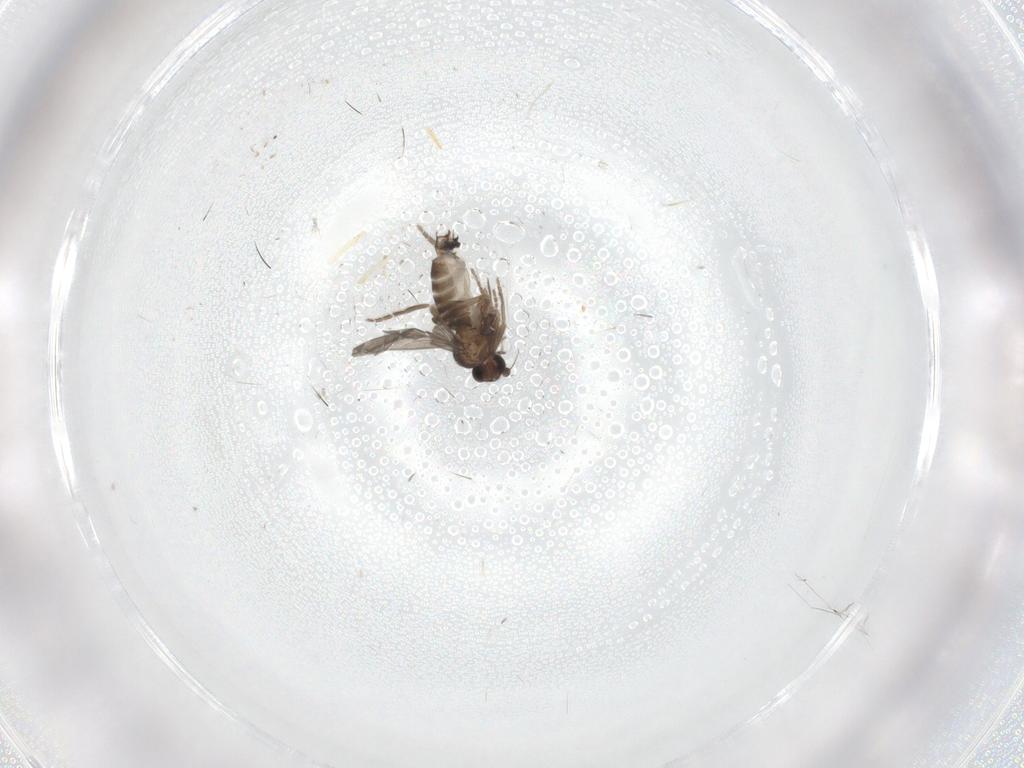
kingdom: Animalia
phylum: Arthropoda
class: Insecta
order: Diptera
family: Phoridae
